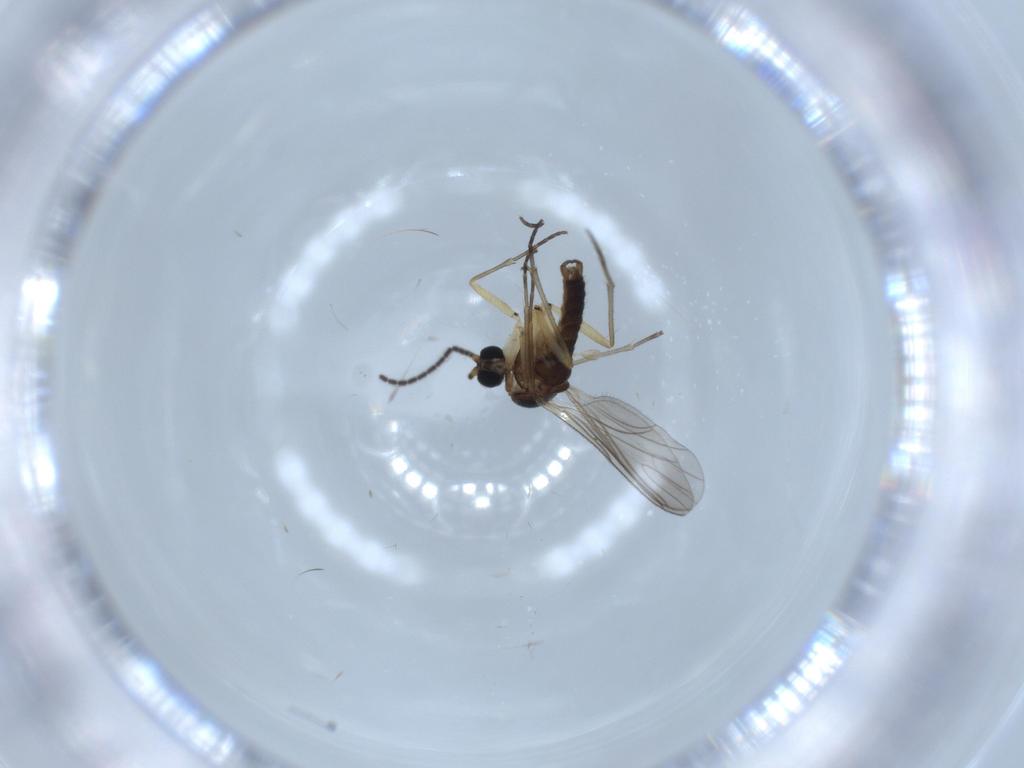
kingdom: Animalia
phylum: Arthropoda
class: Insecta
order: Diptera
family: Sciaridae
